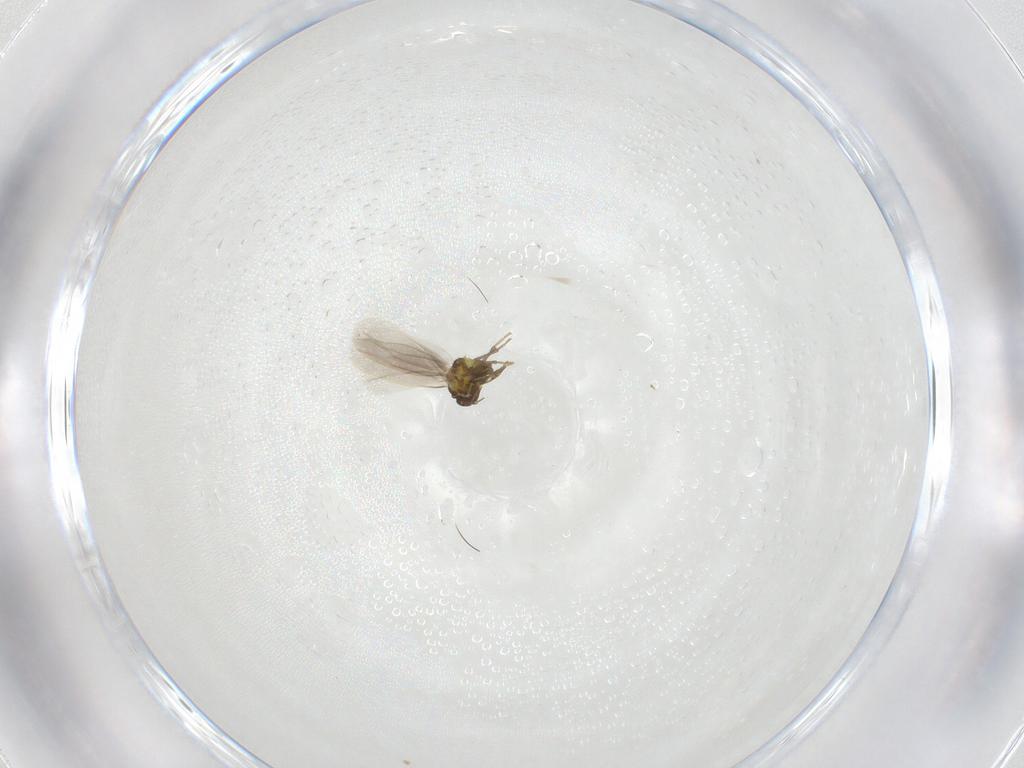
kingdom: Animalia
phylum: Arthropoda
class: Insecta
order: Hemiptera
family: Aleyrodidae
